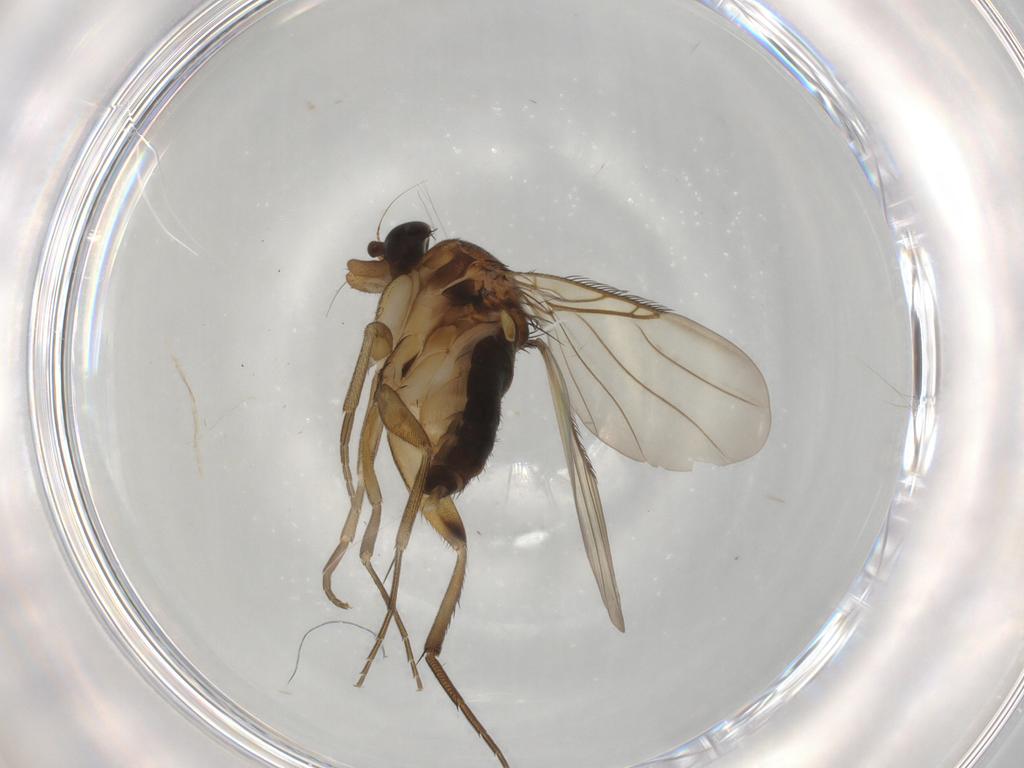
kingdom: Animalia
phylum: Arthropoda
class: Insecta
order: Diptera
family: Phoridae
